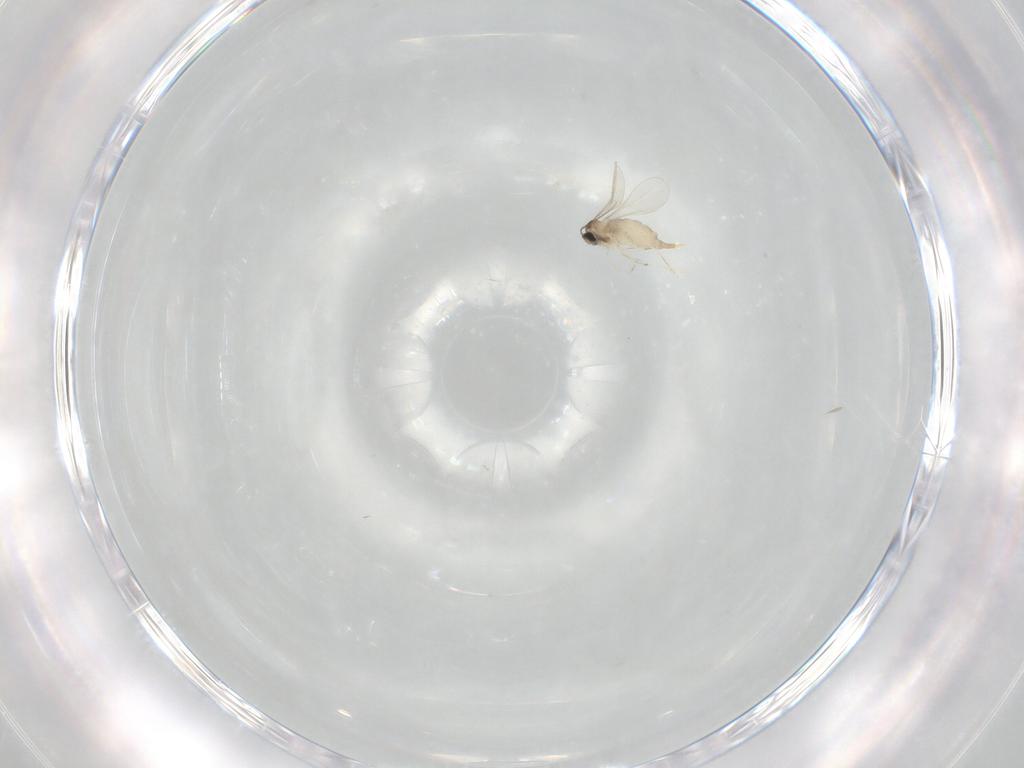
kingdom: Animalia
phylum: Arthropoda
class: Insecta
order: Orthoptera
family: Trigonidiidae
